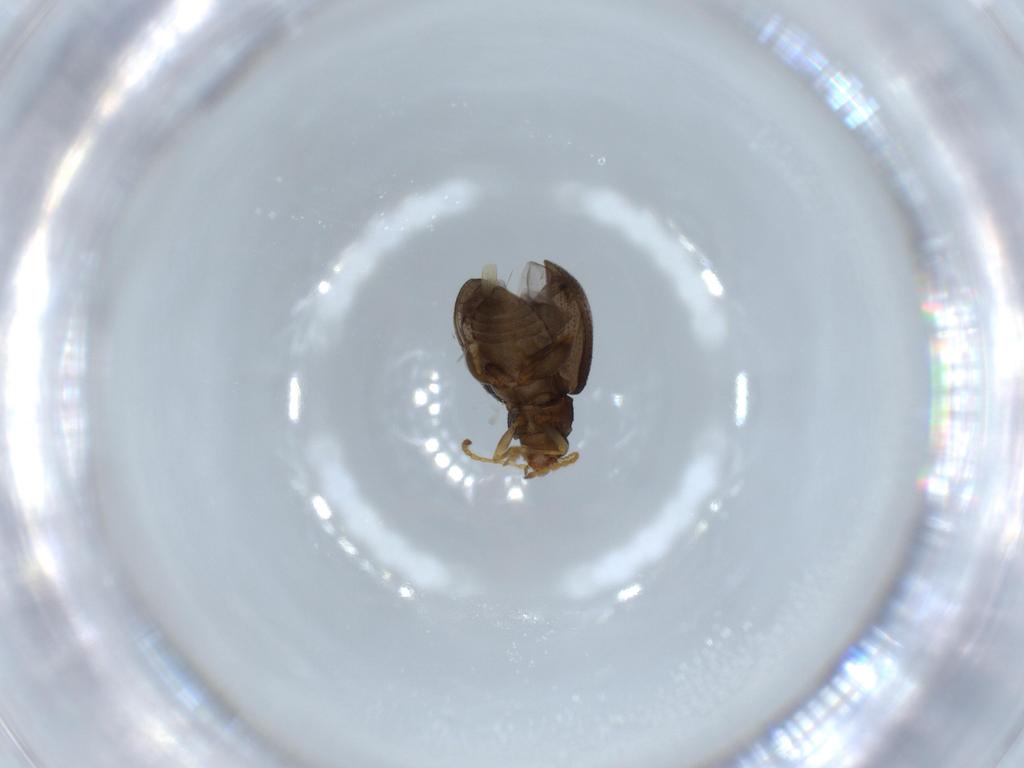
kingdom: Animalia
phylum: Arthropoda
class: Insecta
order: Coleoptera
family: Chrysomelidae
